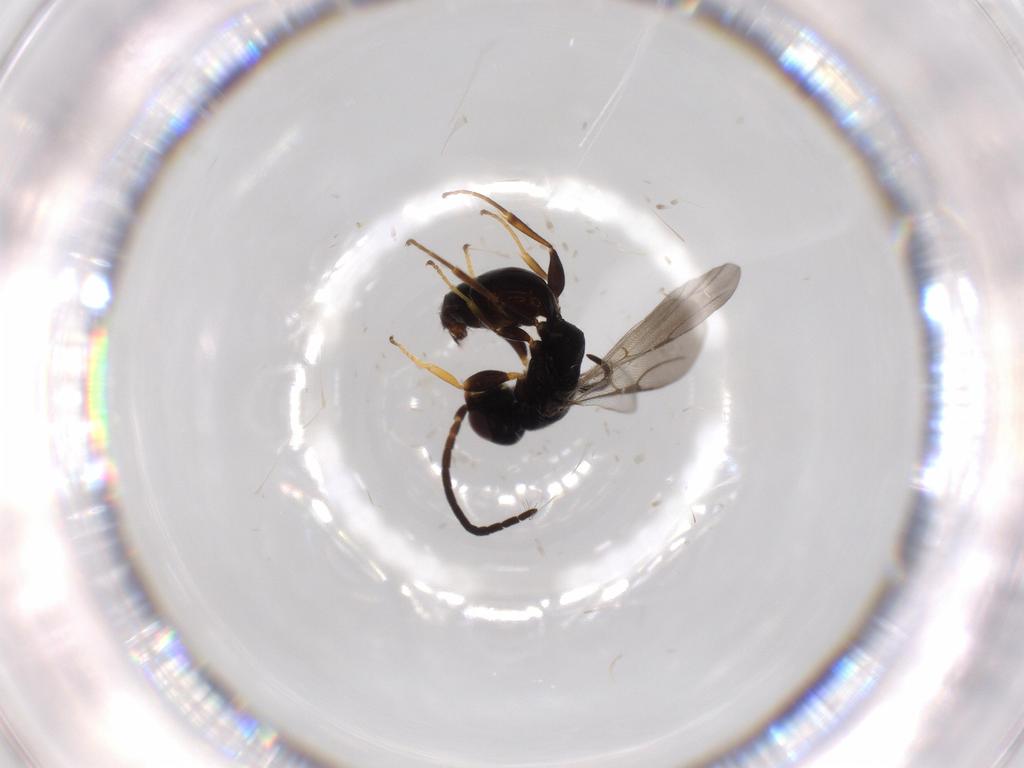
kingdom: Animalia
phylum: Arthropoda
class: Insecta
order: Hymenoptera
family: Bethylidae
